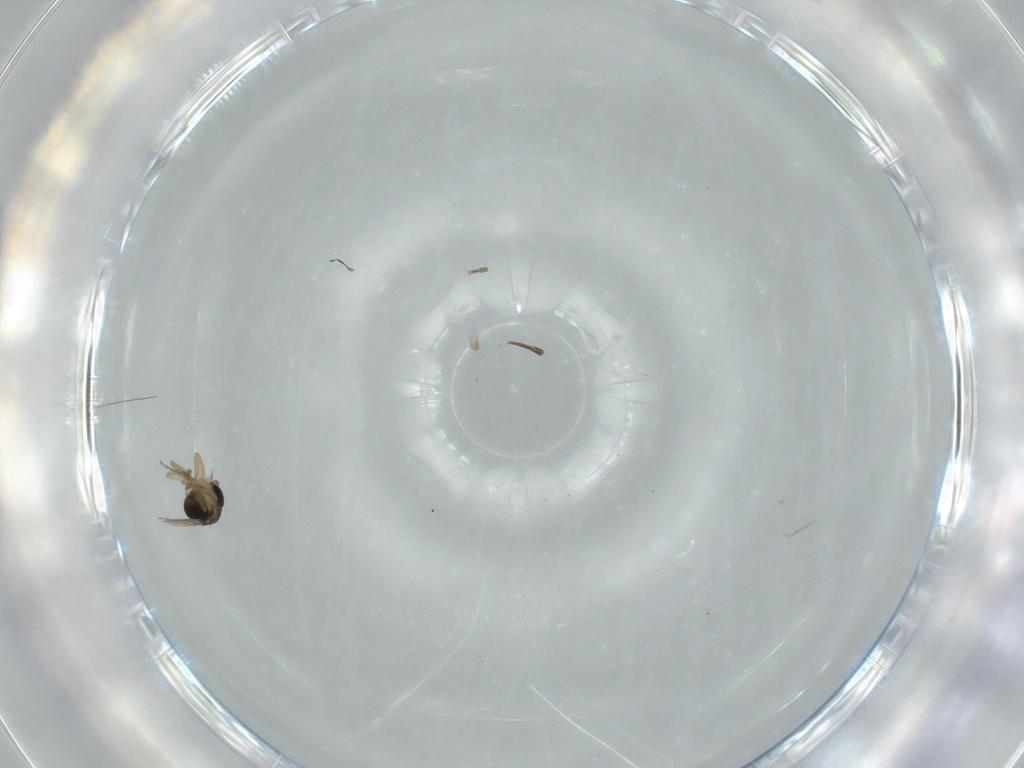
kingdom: Animalia
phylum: Arthropoda
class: Insecta
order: Diptera
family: Phoridae
